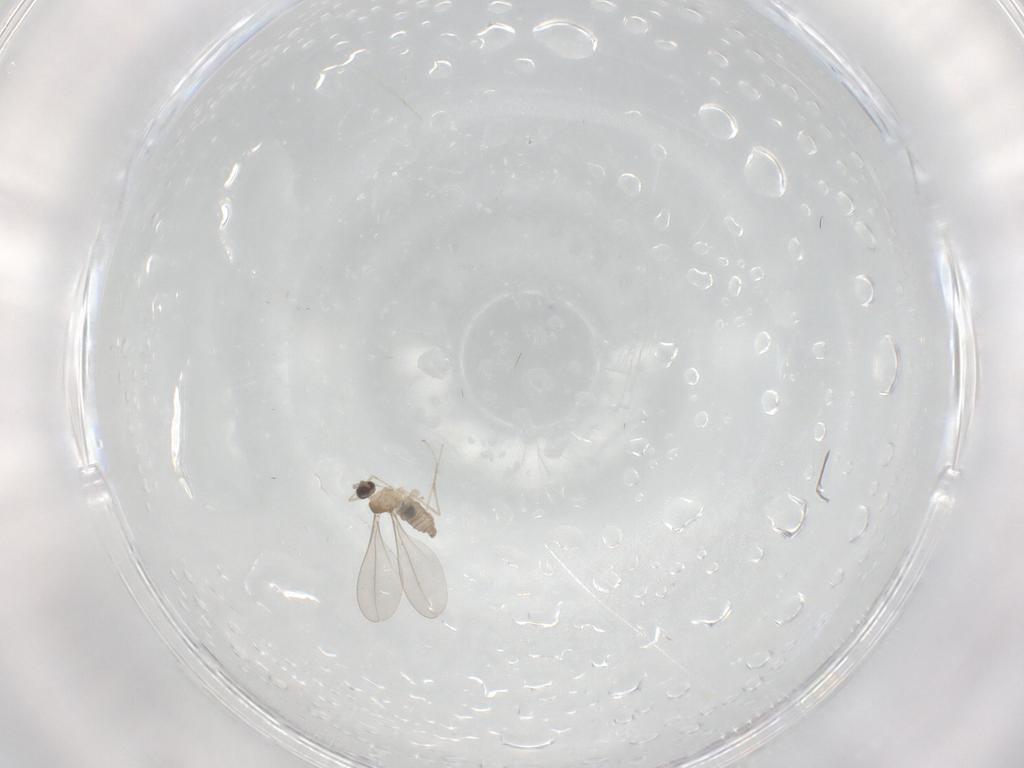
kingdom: Animalia
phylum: Arthropoda
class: Insecta
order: Diptera
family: Cecidomyiidae
